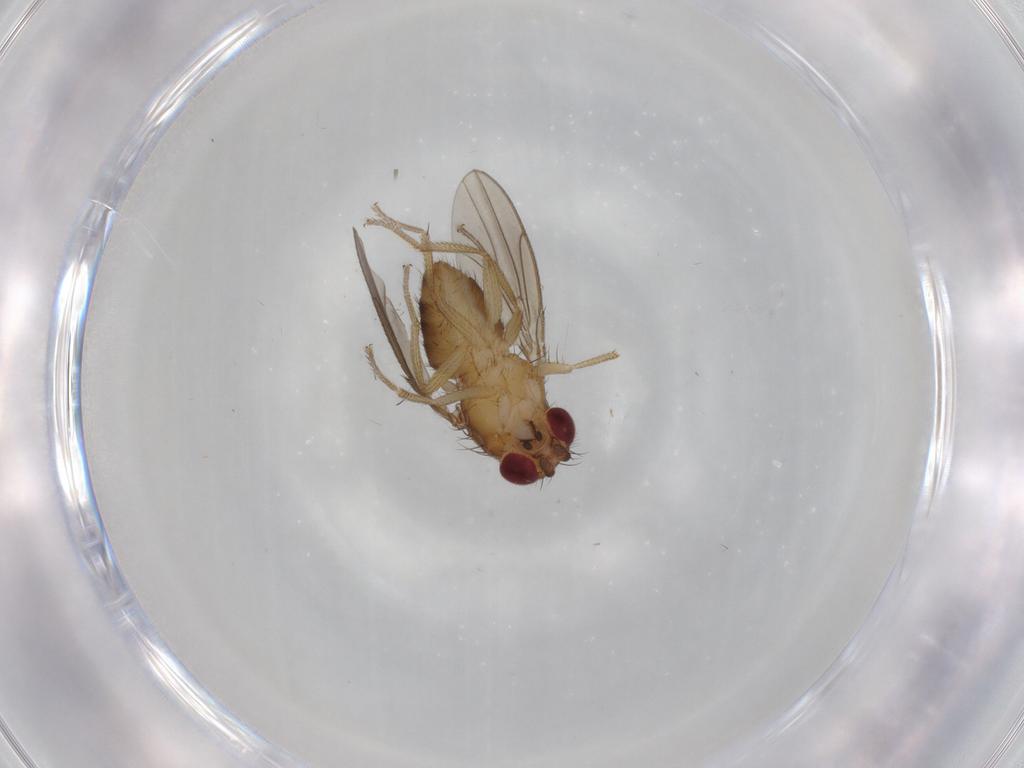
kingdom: Animalia
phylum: Arthropoda
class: Insecta
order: Diptera
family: Drosophilidae
